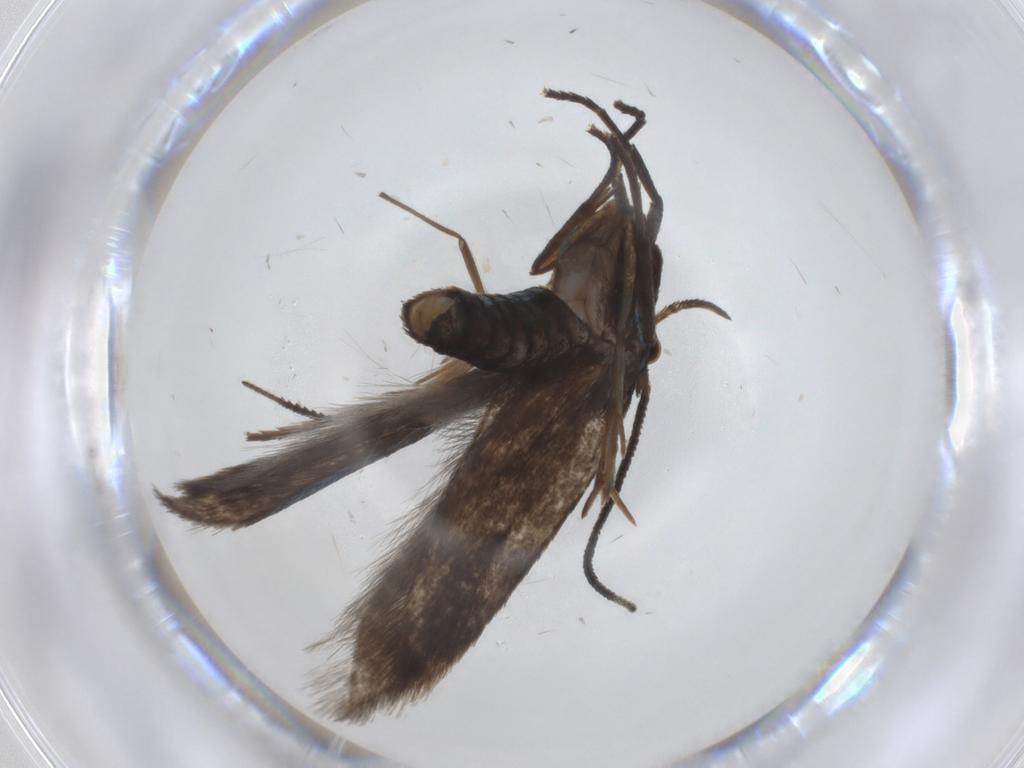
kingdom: Animalia
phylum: Arthropoda
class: Insecta
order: Lepidoptera
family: Argyresthiidae
